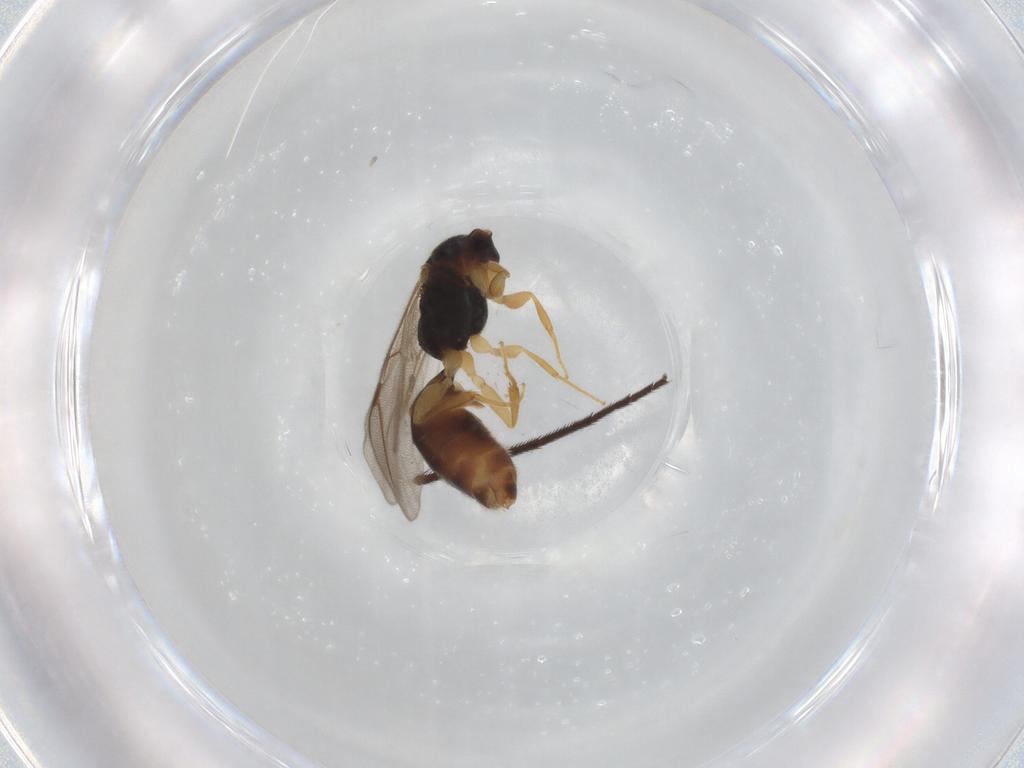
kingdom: Animalia
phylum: Arthropoda
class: Insecta
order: Hymenoptera
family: Bethylidae
